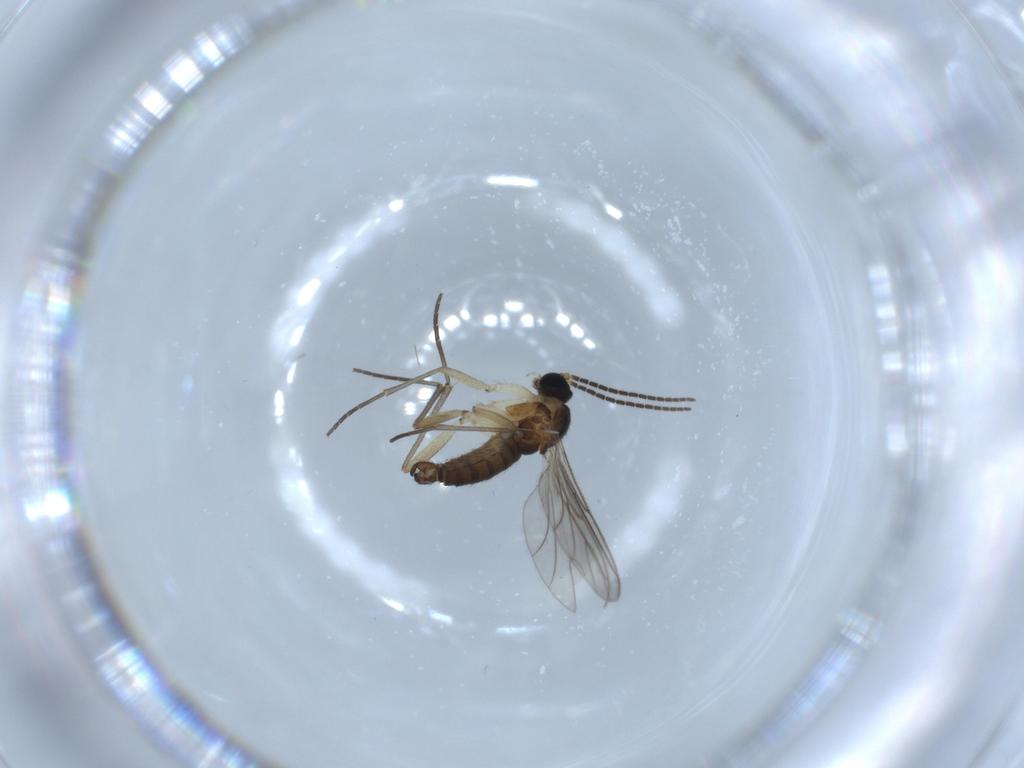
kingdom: Animalia
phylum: Arthropoda
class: Insecta
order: Diptera
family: Sciaridae
